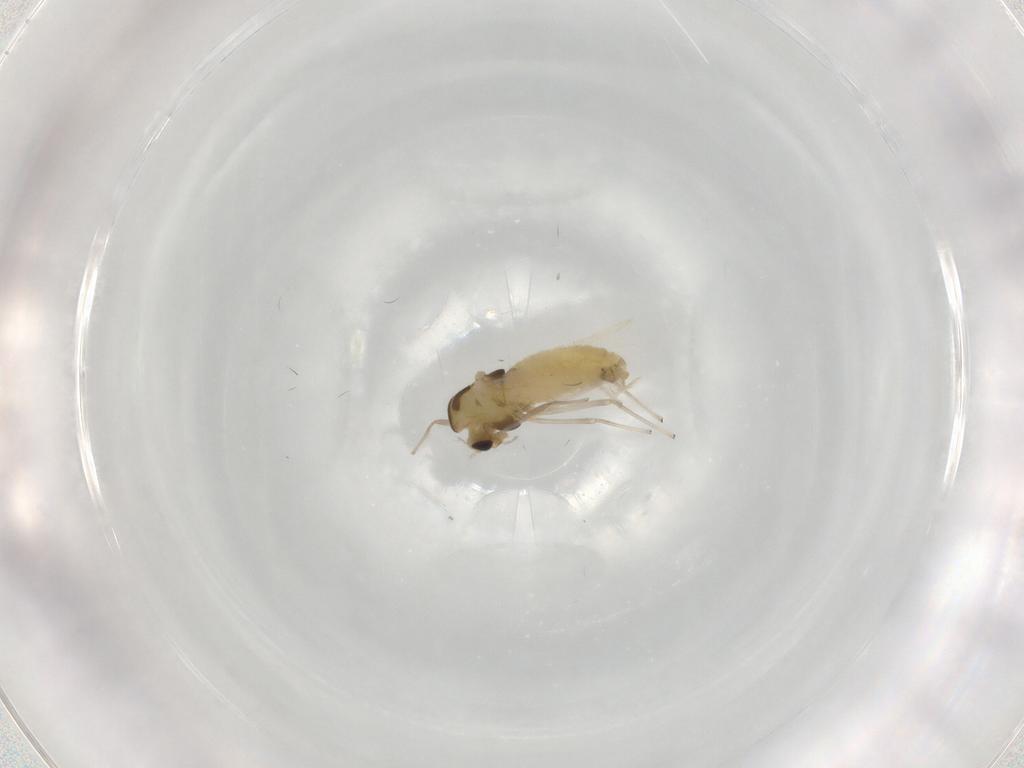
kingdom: Animalia
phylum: Arthropoda
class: Insecta
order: Diptera
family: Chironomidae
